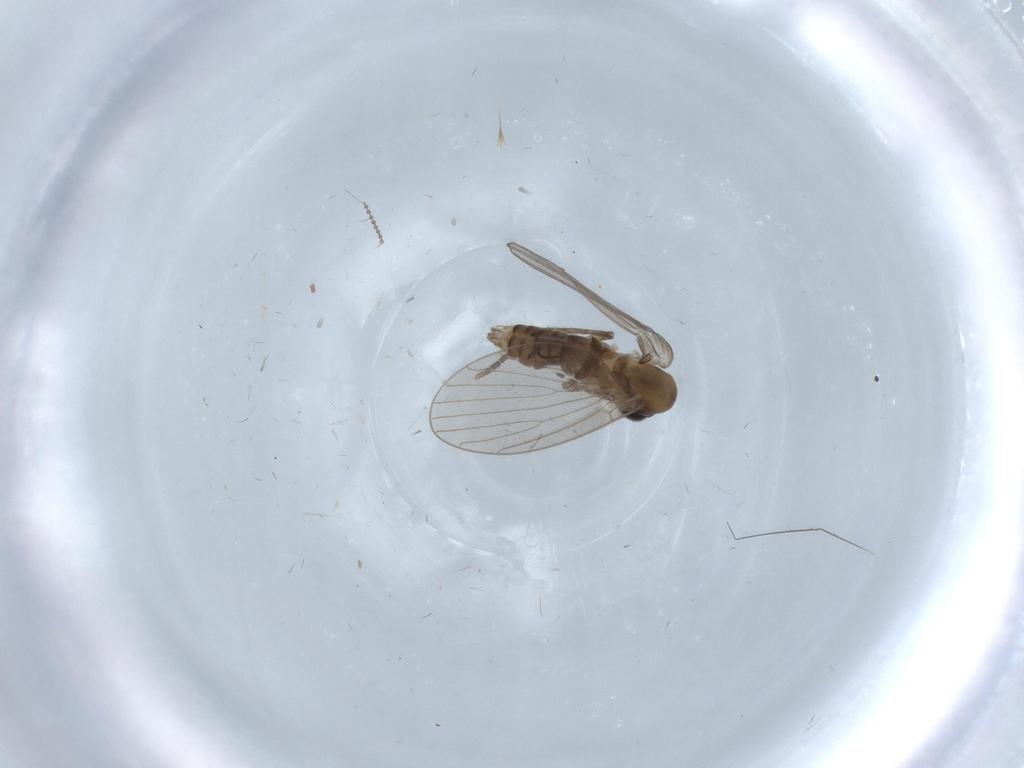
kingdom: Animalia
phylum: Arthropoda
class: Insecta
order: Diptera
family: Psychodidae
